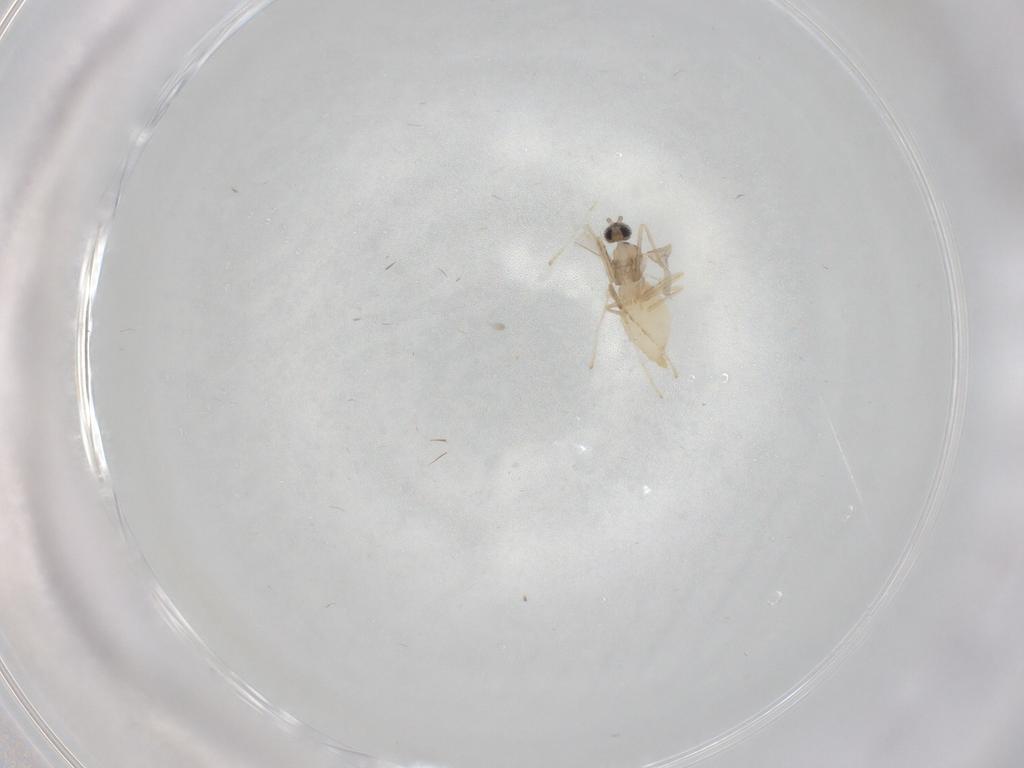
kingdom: Animalia
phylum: Arthropoda
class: Insecta
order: Diptera
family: Cecidomyiidae
